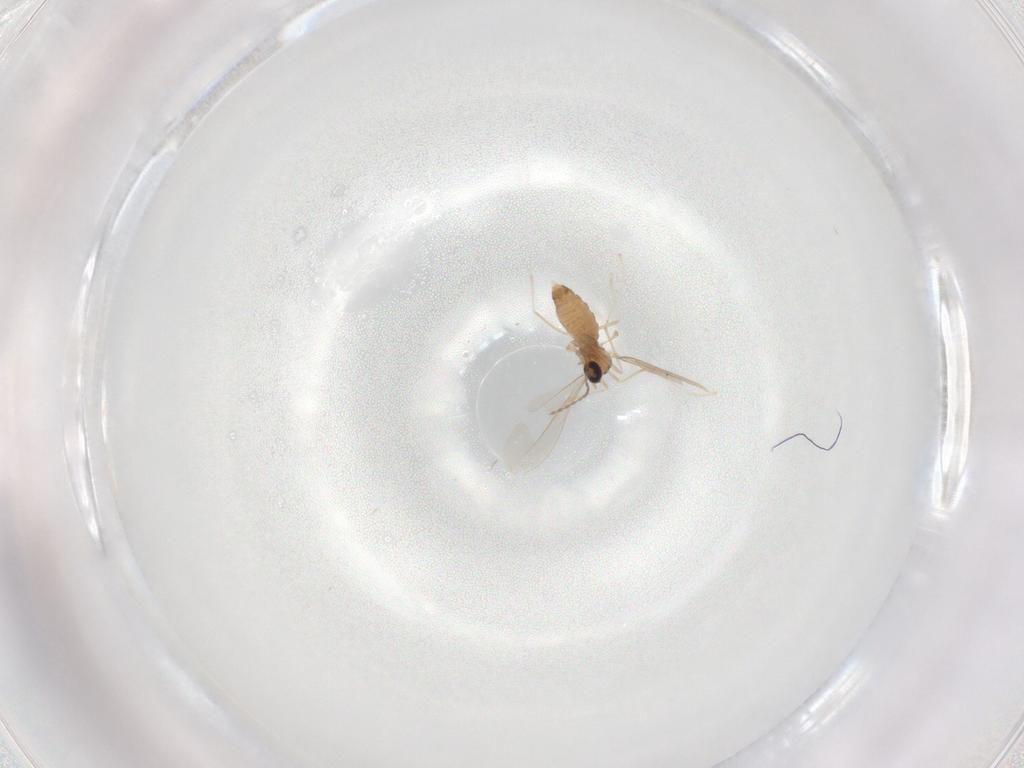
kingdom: Animalia
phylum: Arthropoda
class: Insecta
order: Diptera
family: Cecidomyiidae
